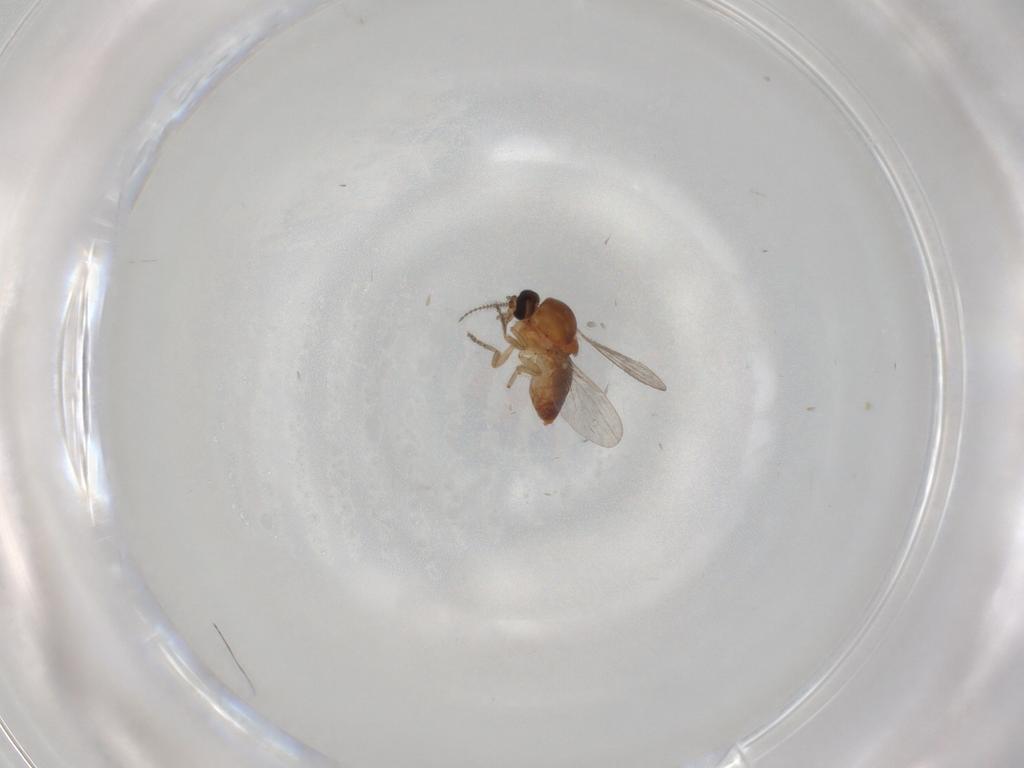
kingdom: Animalia
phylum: Arthropoda
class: Insecta
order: Diptera
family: Ceratopogonidae
